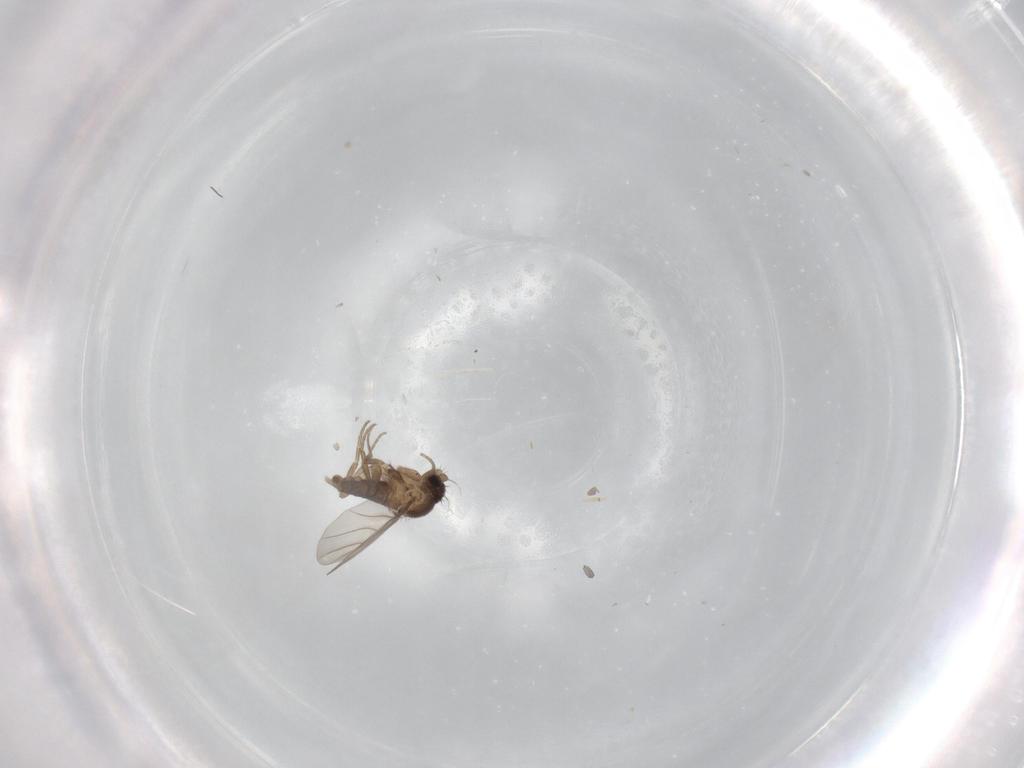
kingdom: Animalia
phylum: Arthropoda
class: Insecta
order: Diptera
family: Phoridae
